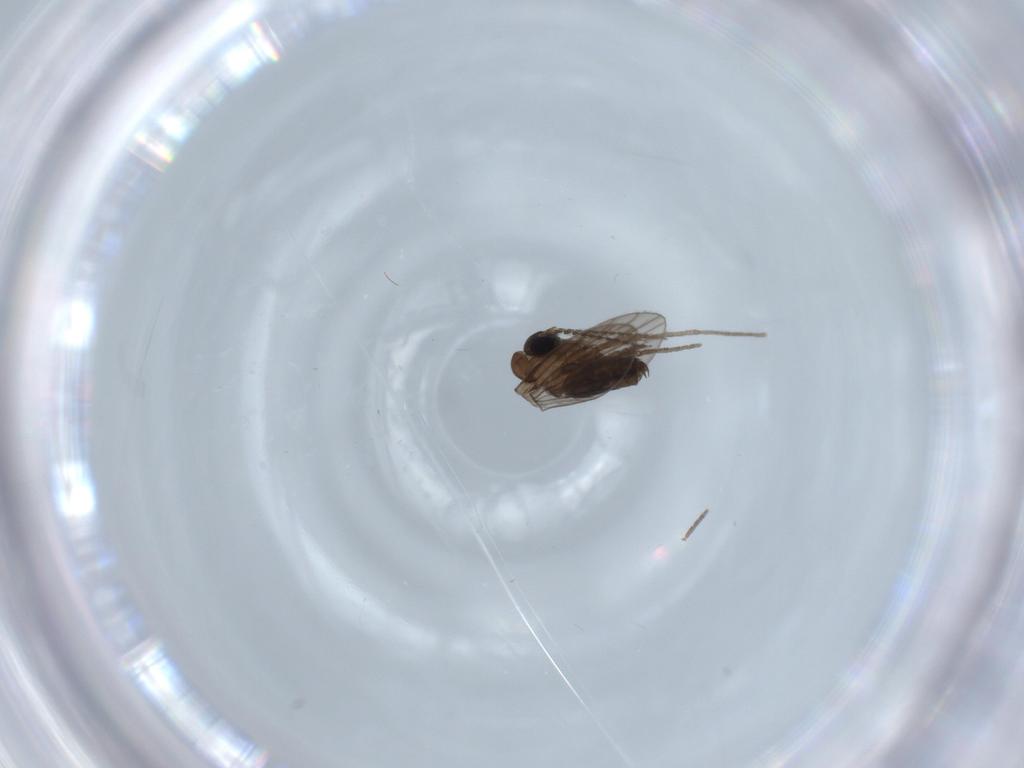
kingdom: Animalia
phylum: Arthropoda
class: Insecta
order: Diptera
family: Psychodidae
